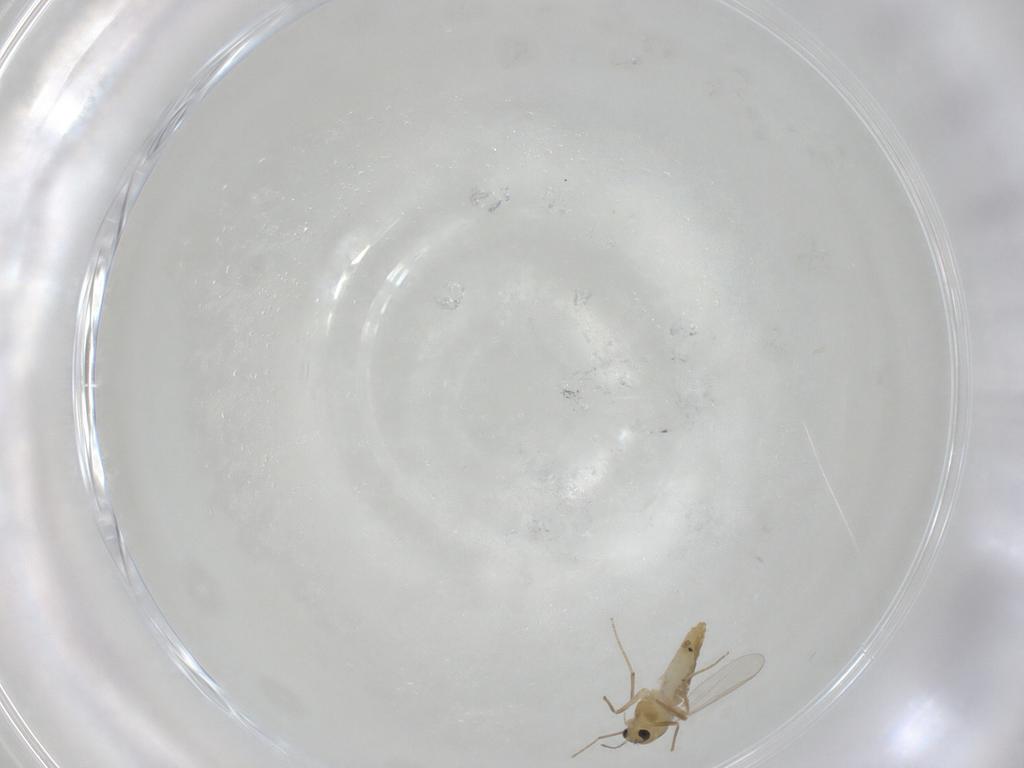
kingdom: Animalia
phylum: Arthropoda
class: Insecta
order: Diptera
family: Chironomidae
